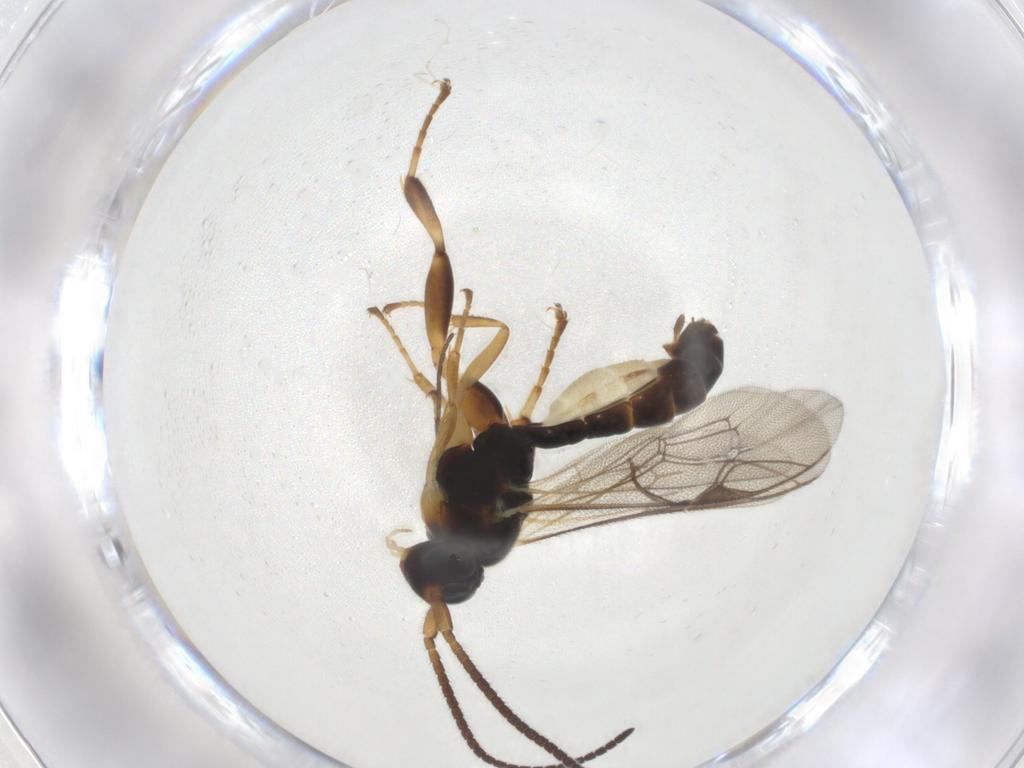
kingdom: Animalia
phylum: Arthropoda
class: Insecta
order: Hymenoptera
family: Ichneumonidae
